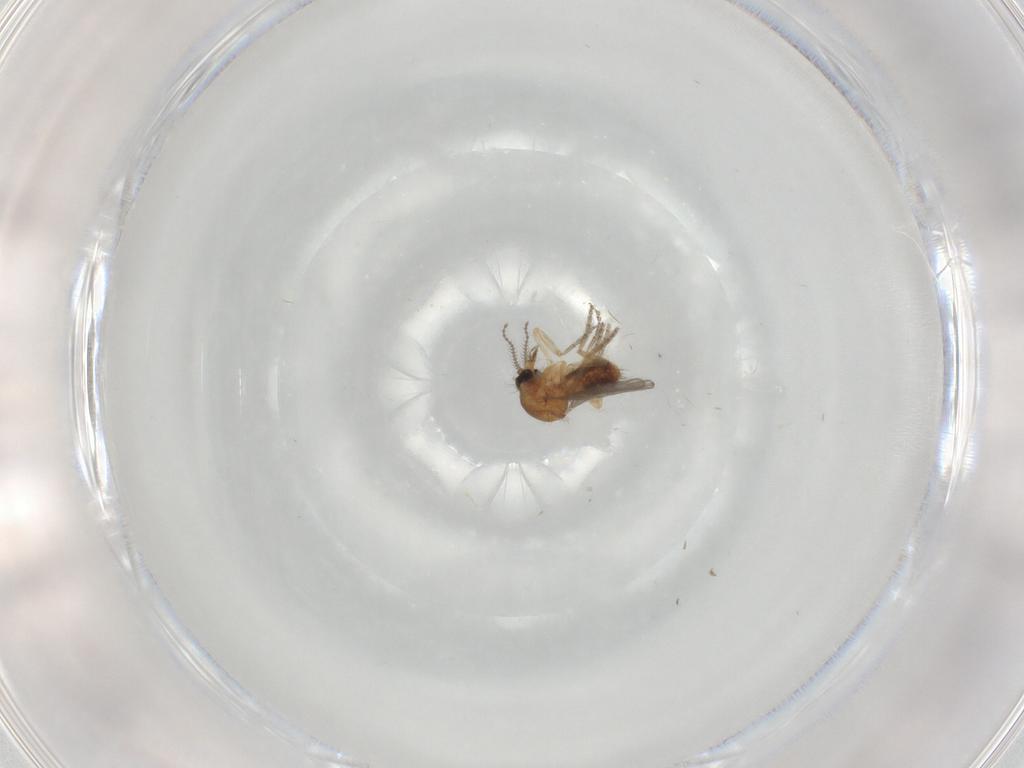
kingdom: Animalia
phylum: Arthropoda
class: Insecta
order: Diptera
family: Ceratopogonidae
